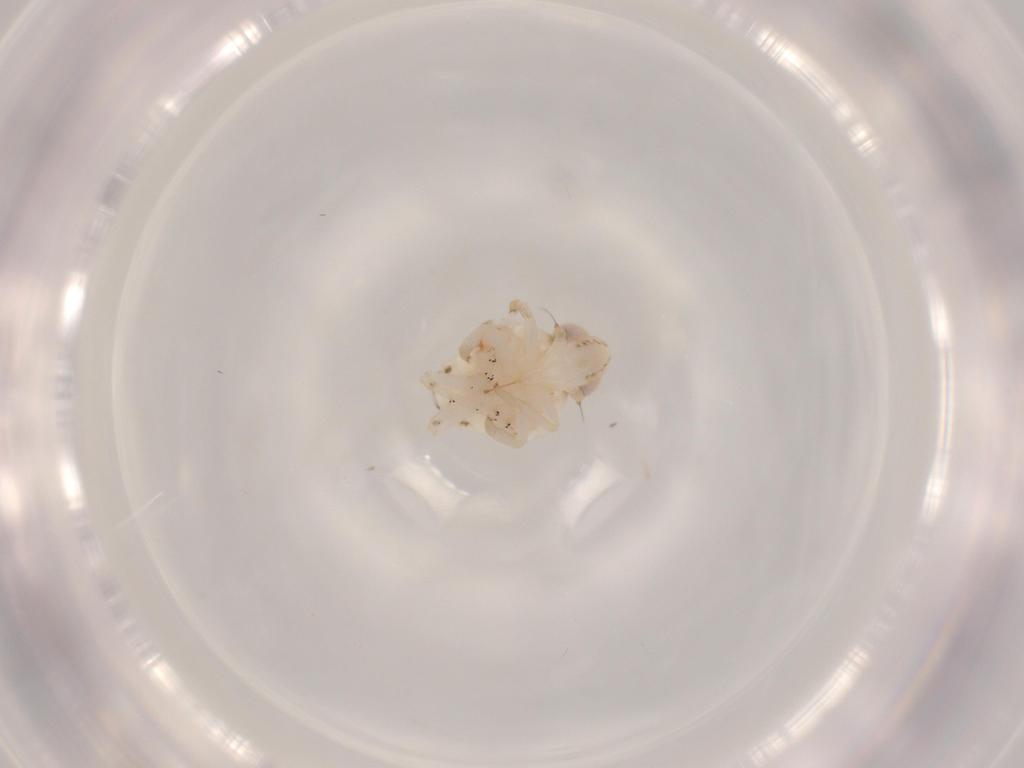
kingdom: Animalia
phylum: Arthropoda
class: Insecta
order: Hemiptera
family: Nogodinidae
